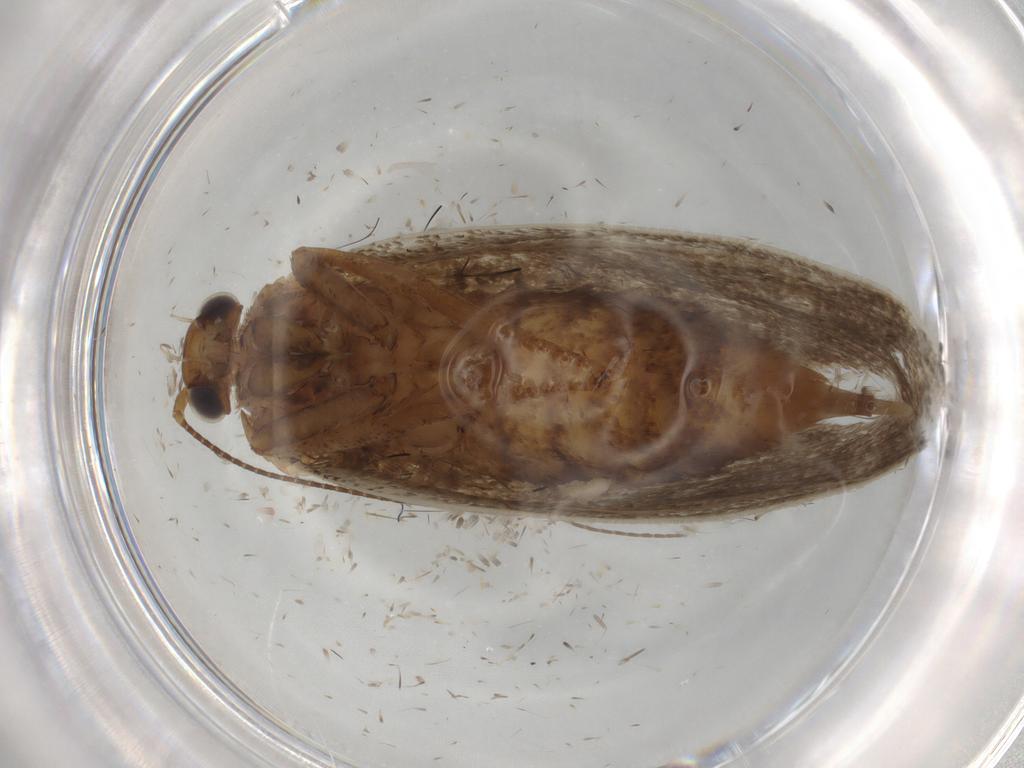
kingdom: Animalia
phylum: Arthropoda
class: Insecta
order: Lepidoptera
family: Tineidae
